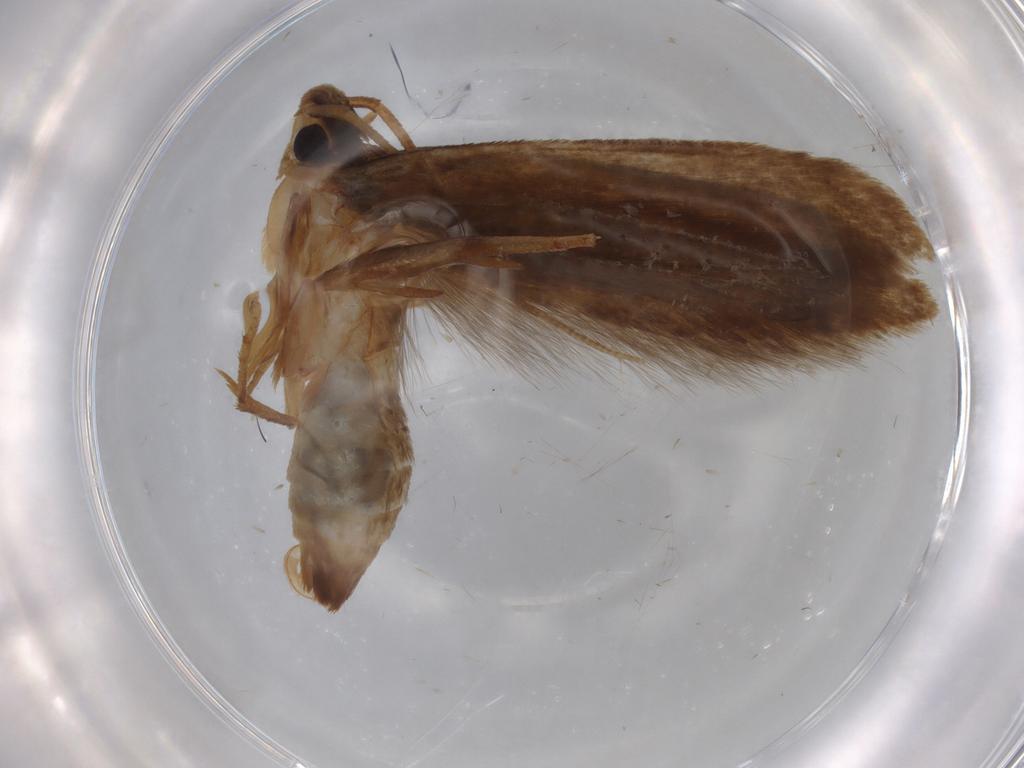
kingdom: Animalia
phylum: Arthropoda
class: Insecta
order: Lepidoptera
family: Tineidae
